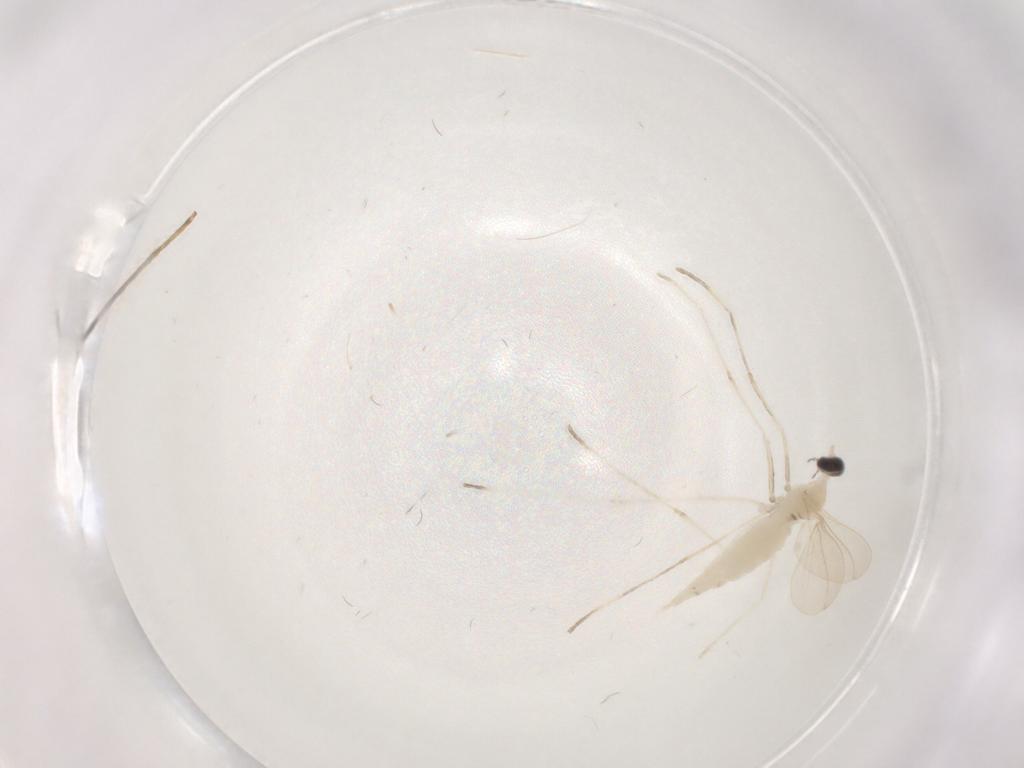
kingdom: Animalia
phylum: Arthropoda
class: Insecta
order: Diptera
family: Cecidomyiidae
